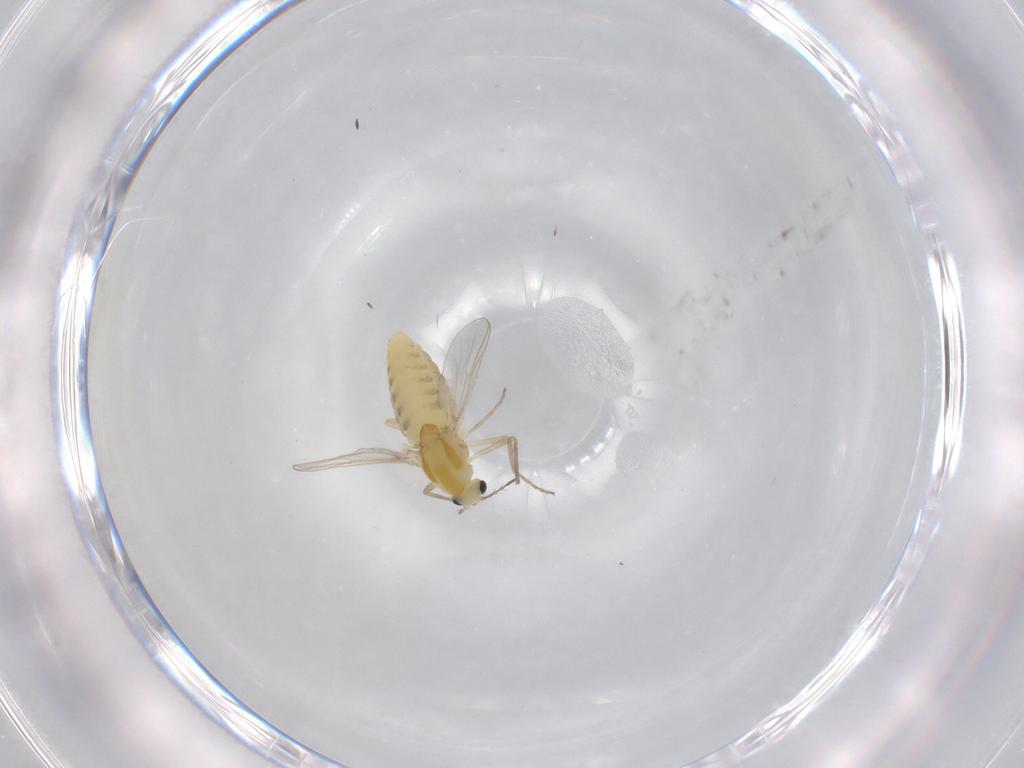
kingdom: Animalia
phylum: Arthropoda
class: Insecta
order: Diptera
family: Chironomidae
